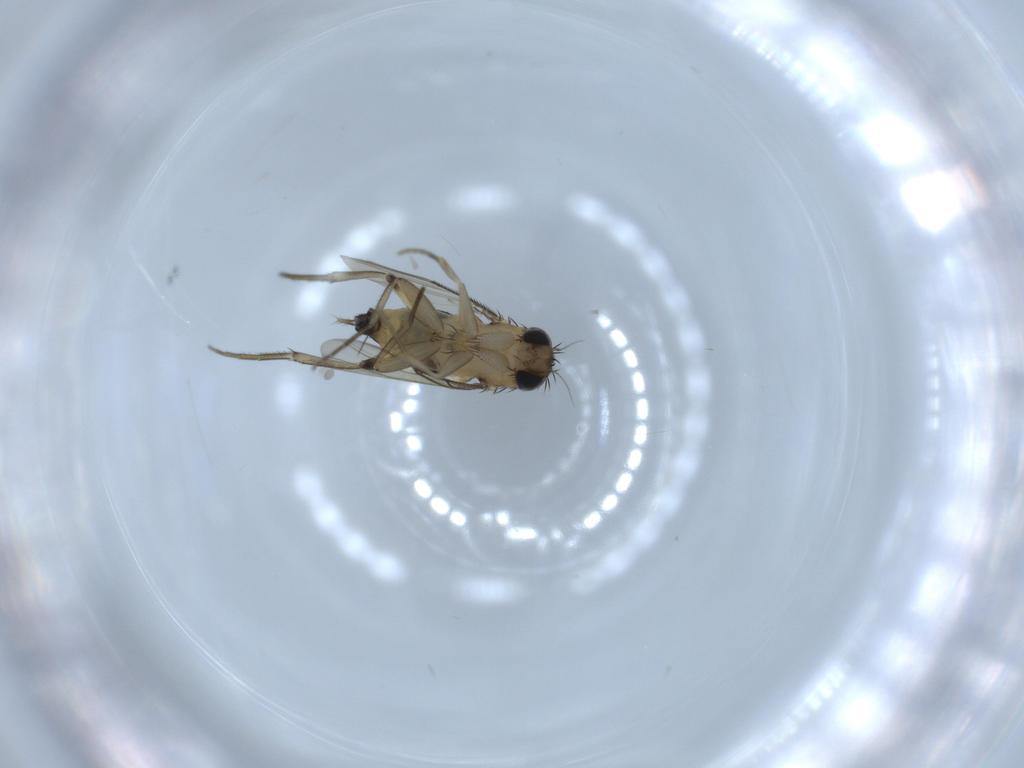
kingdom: Animalia
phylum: Arthropoda
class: Insecta
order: Diptera
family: Phoridae
